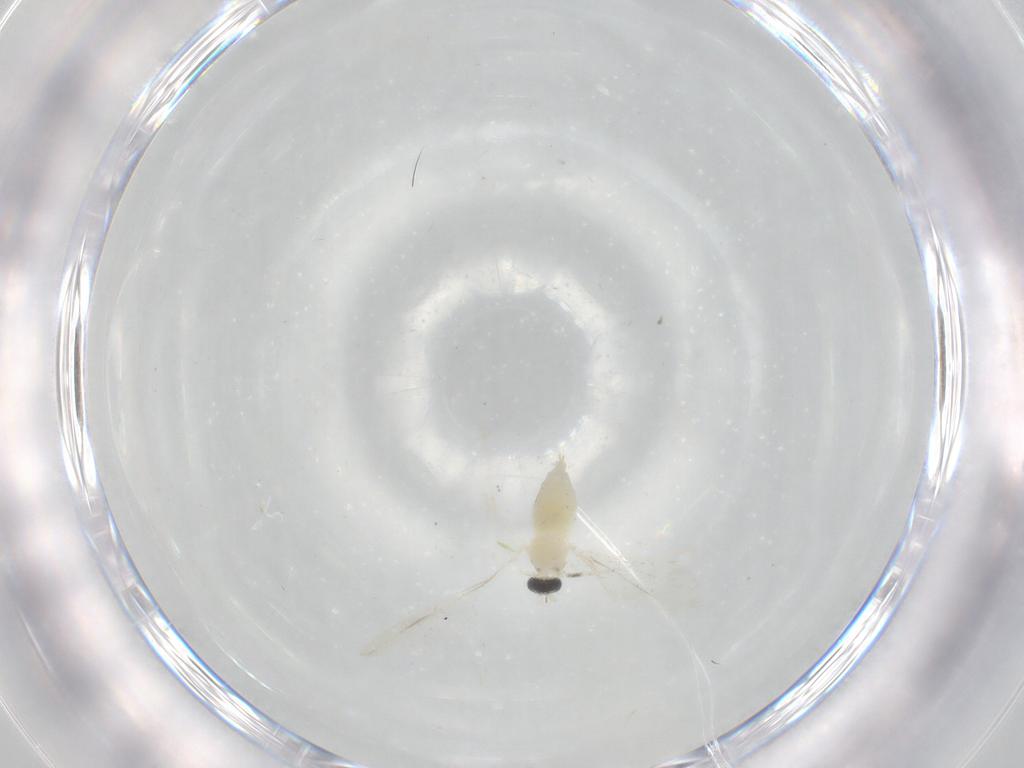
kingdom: Animalia
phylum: Arthropoda
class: Insecta
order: Diptera
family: Cecidomyiidae
